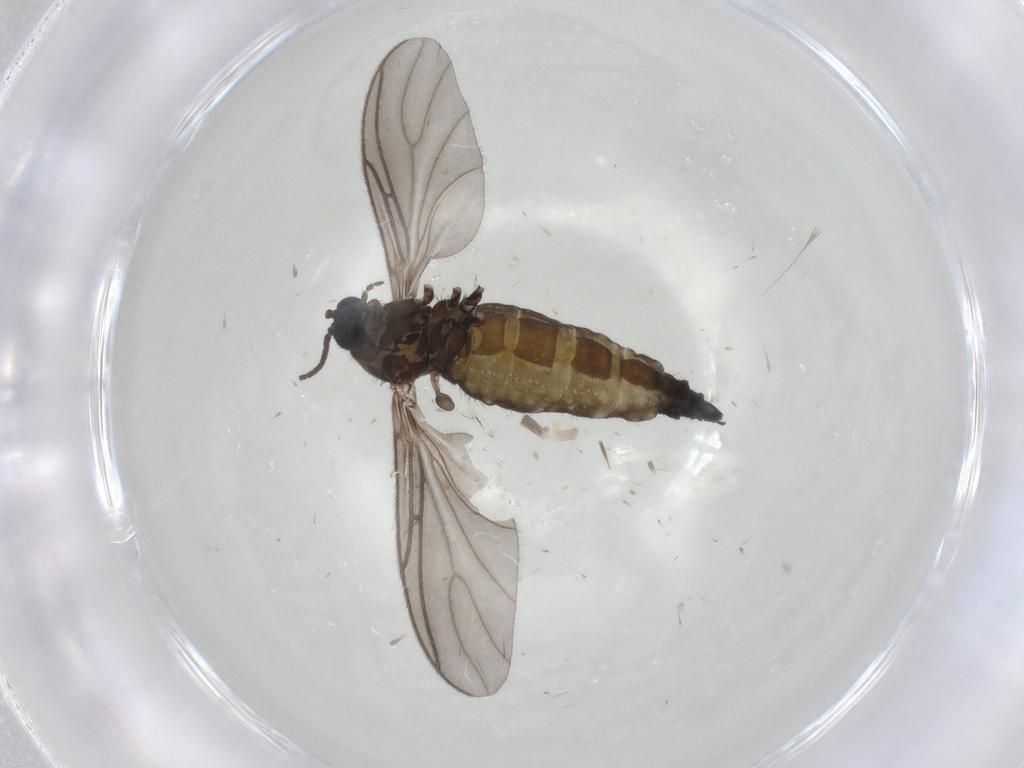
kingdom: Animalia
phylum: Arthropoda
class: Insecta
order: Diptera
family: Sciaridae
